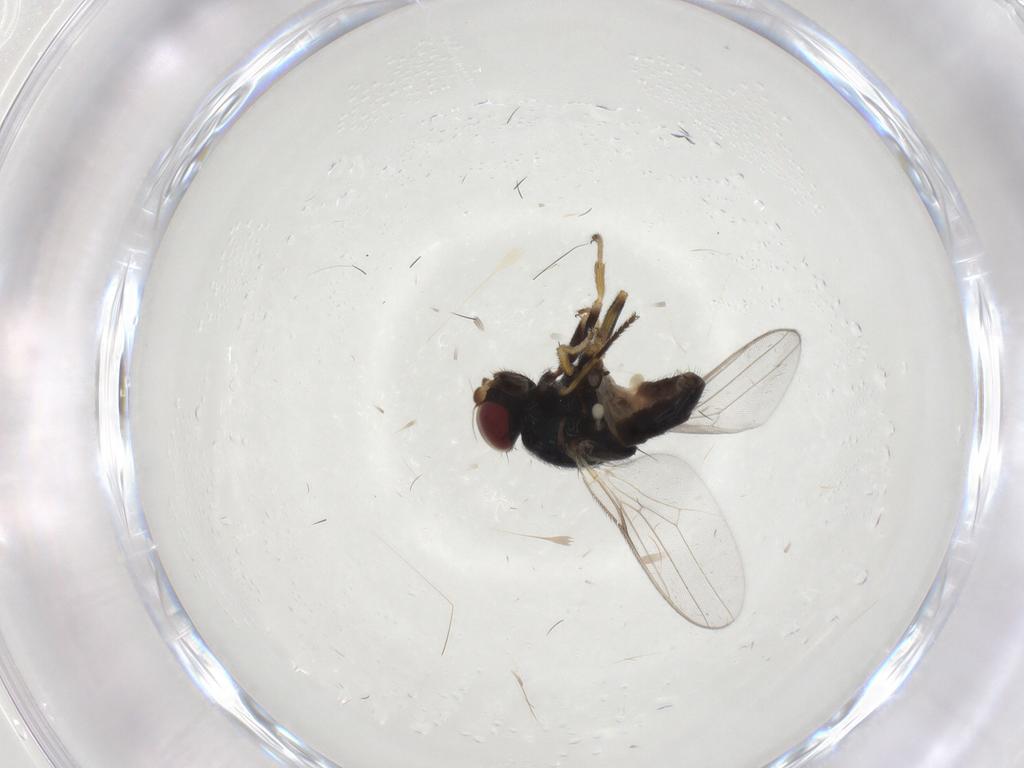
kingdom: Animalia
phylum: Arthropoda
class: Insecta
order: Diptera
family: Chloropidae
